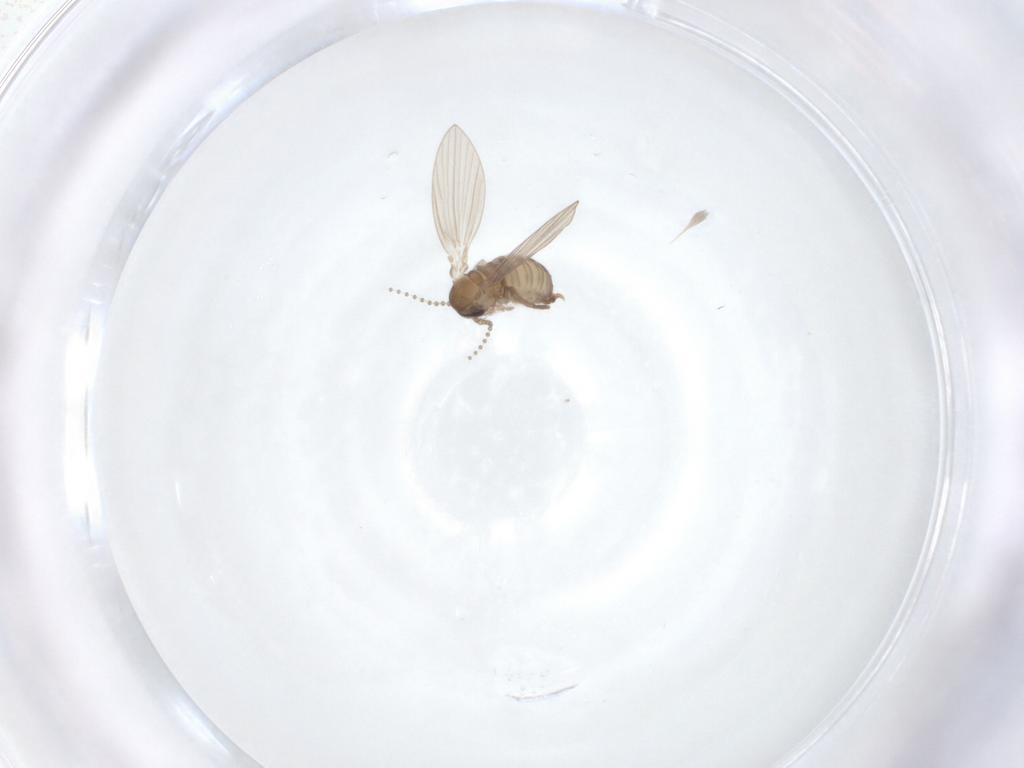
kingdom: Animalia
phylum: Arthropoda
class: Insecta
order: Diptera
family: Psychodidae
